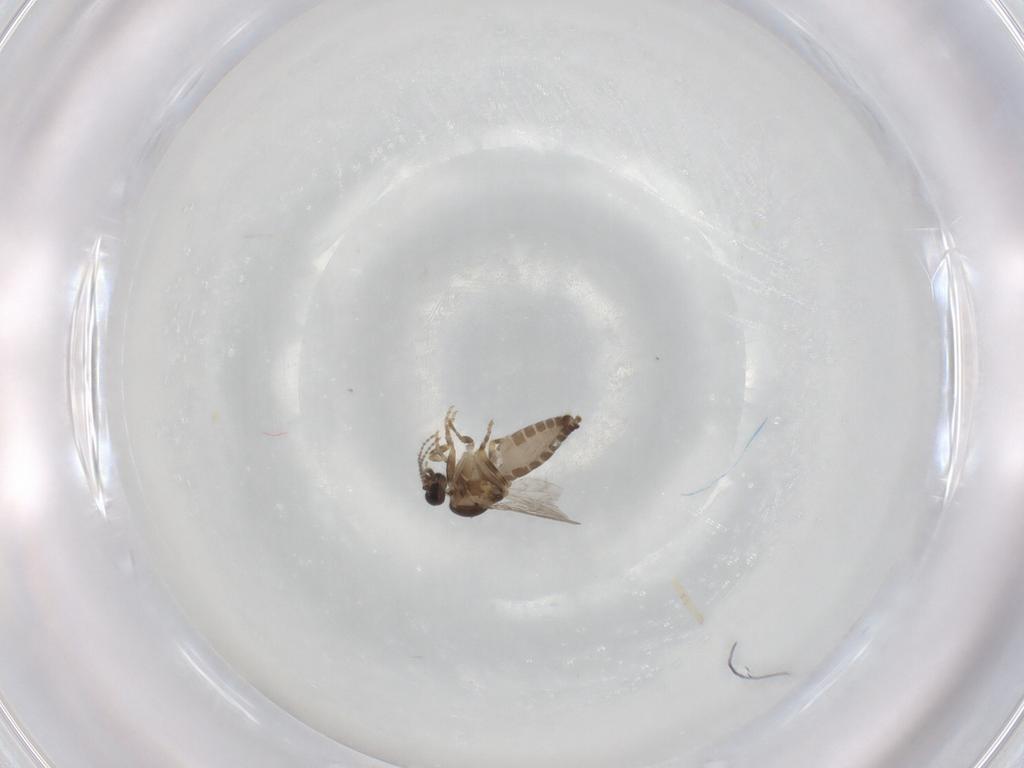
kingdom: Animalia
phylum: Arthropoda
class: Insecta
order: Diptera
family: Ceratopogonidae
